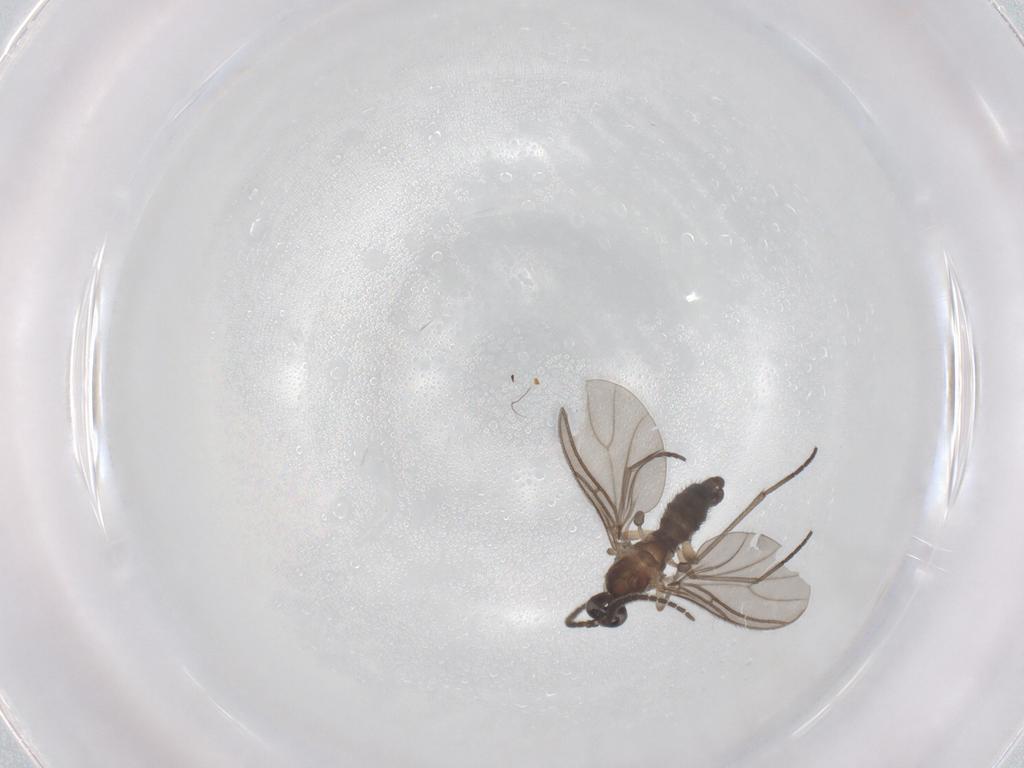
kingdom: Animalia
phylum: Arthropoda
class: Insecta
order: Diptera
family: Sciaridae
